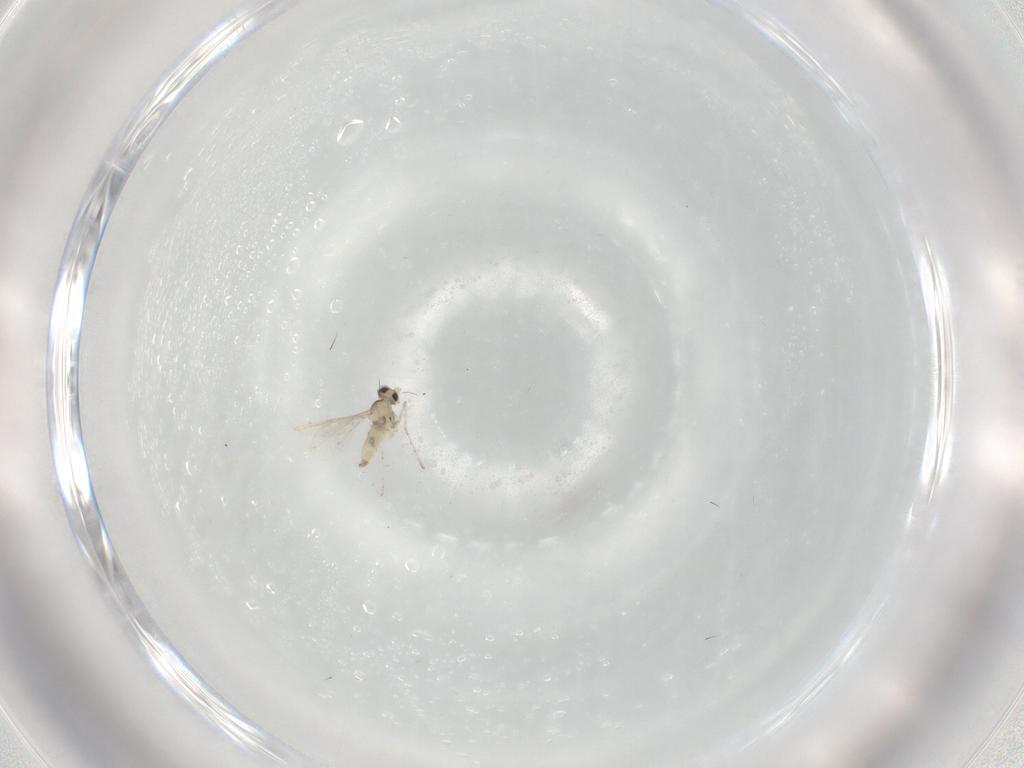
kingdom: Animalia
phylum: Arthropoda
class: Insecta
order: Diptera
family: Cecidomyiidae
